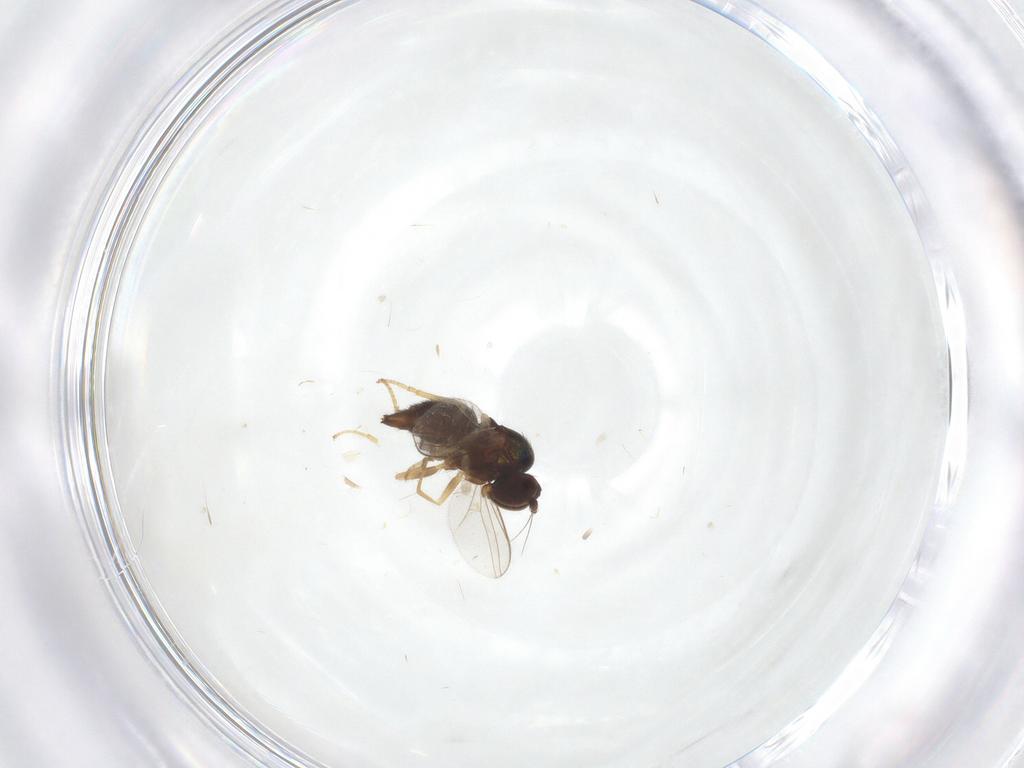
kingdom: Animalia
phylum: Arthropoda
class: Insecta
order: Diptera
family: Dolichopodidae
